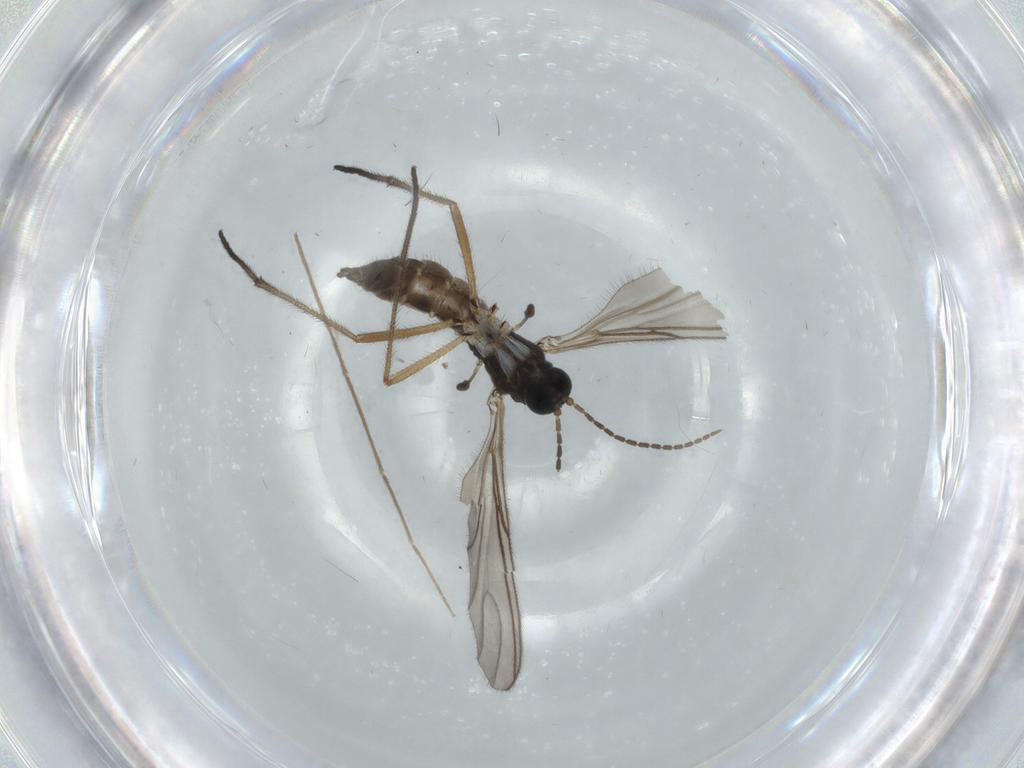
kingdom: Animalia
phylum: Arthropoda
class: Insecta
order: Diptera
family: Sciaridae
